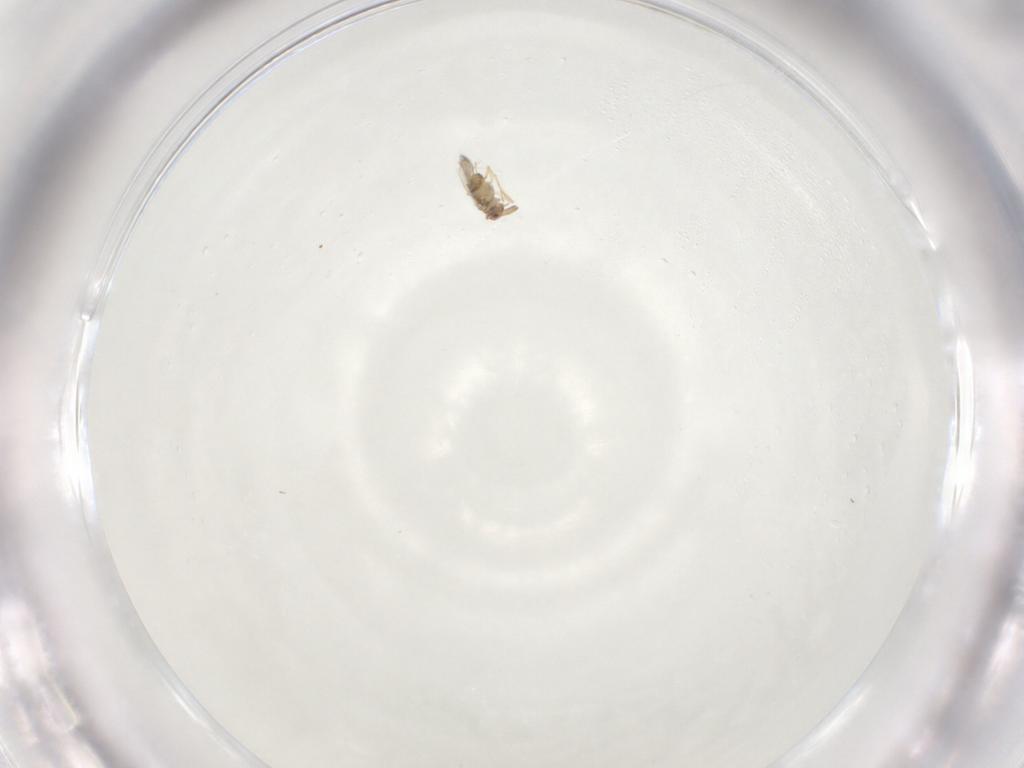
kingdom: Animalia
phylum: Arthropoda
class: Insecta
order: Hymenoptera
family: Aphelinidae
